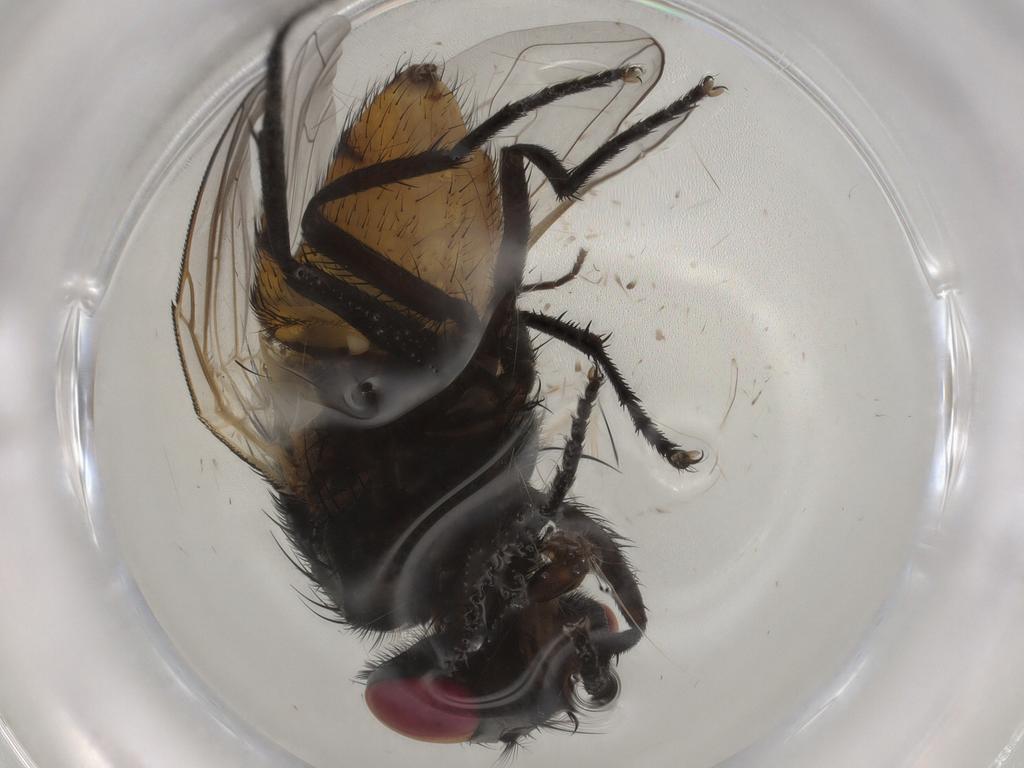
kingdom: Animalia
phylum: Arthropoda
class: Insecta
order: Diptera
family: Muscidae
